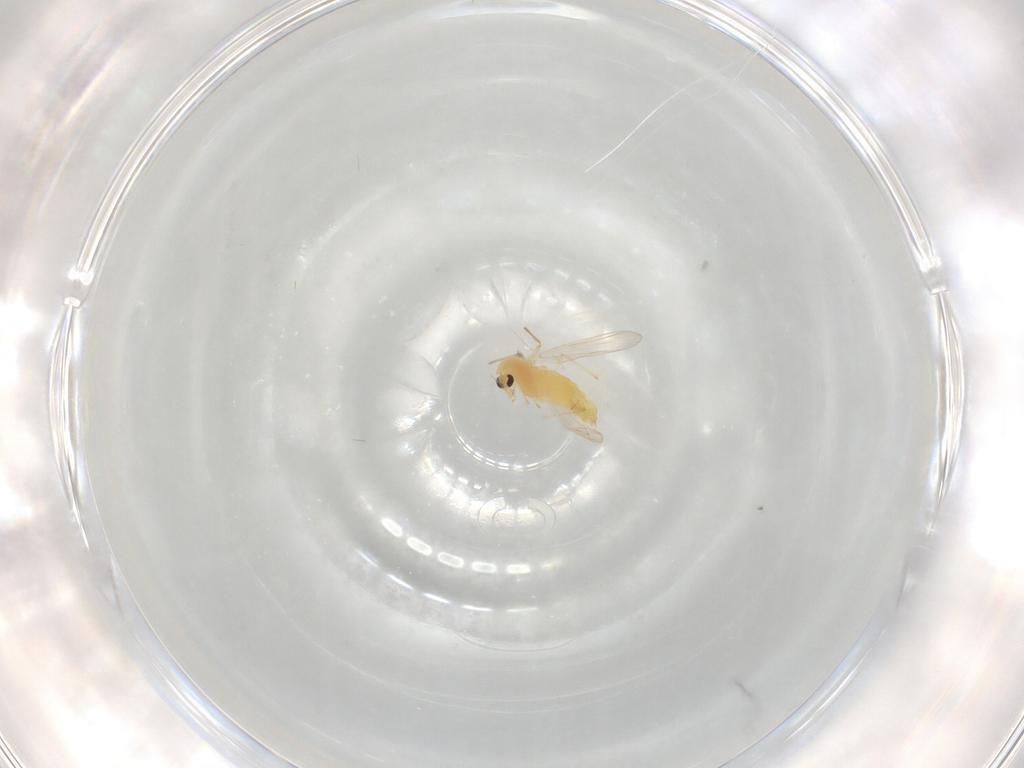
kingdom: Animalia
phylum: Arthropoda
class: Insecta
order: Diptera
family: Chironomidae
